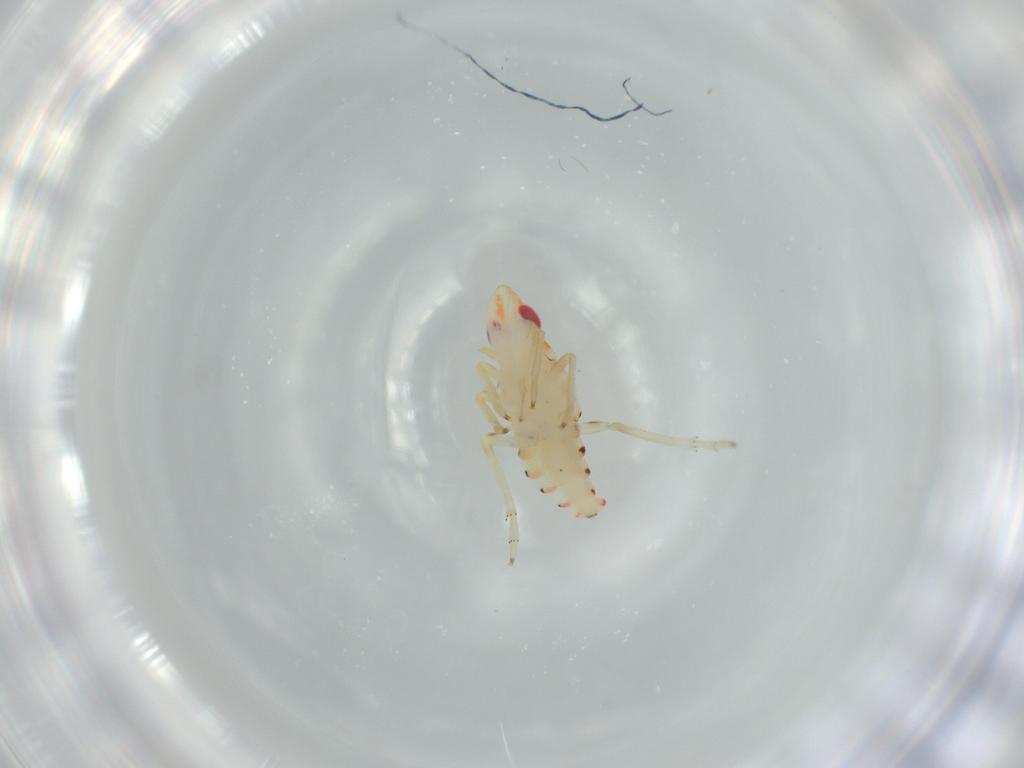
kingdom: Animalia
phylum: Arthropoda
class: Insecta
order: Hemiptera
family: Tropiduchidae
